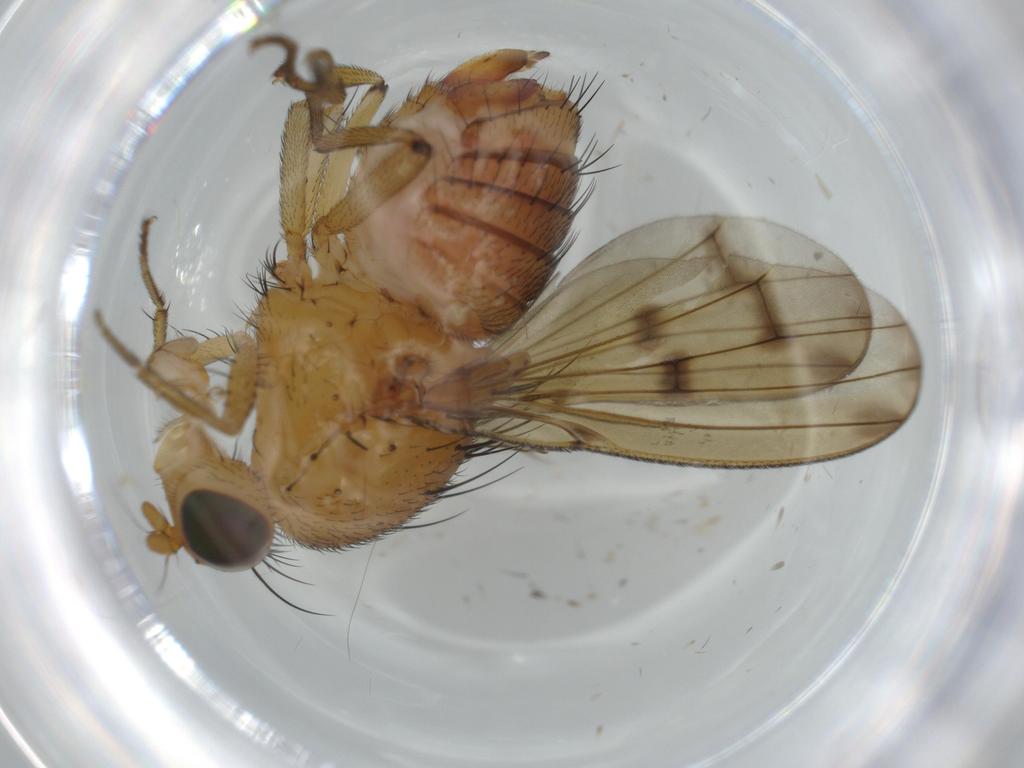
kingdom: Animalia
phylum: Arthropoda
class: Insecta
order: Diptera
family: Lauxaniidae
